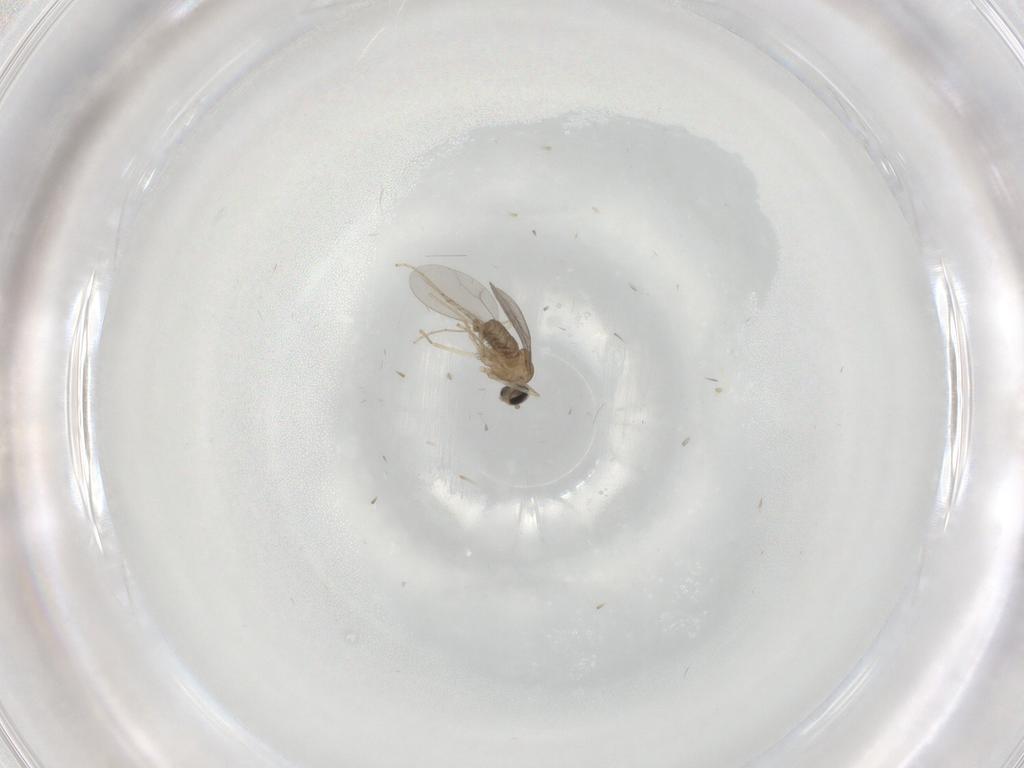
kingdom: Animalia
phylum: Arthropoda
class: Insecta
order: Diptera
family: Cecidomyiidae
